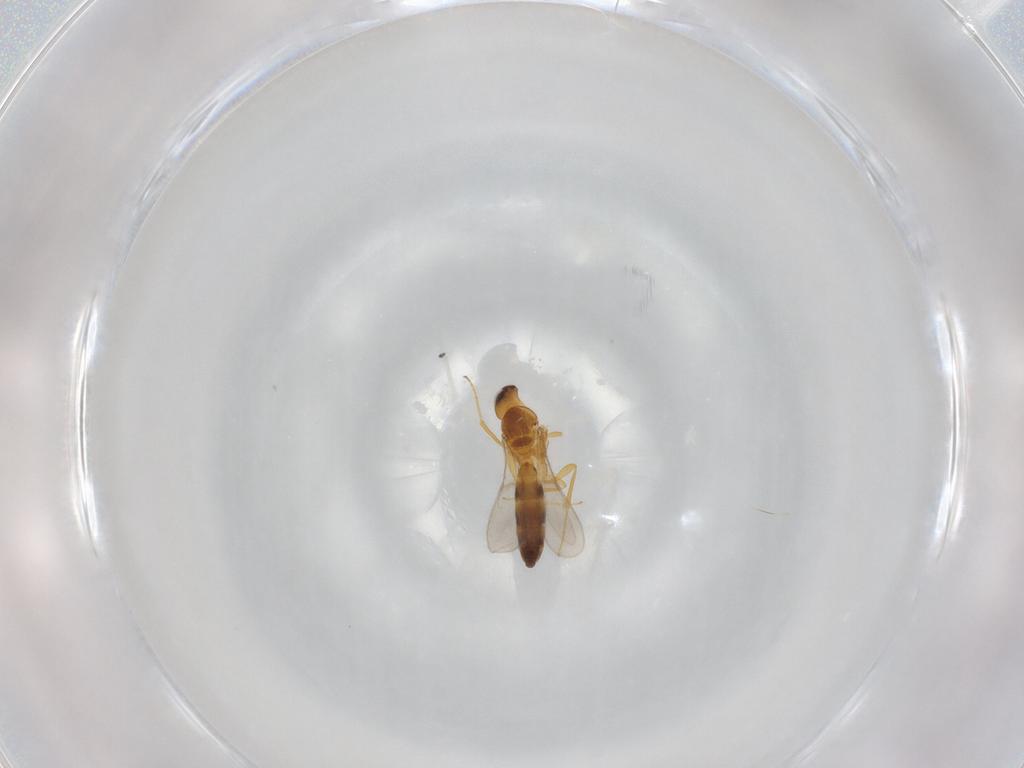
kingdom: Animalia
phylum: Arthropoda
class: Insecta
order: Hymenoptera
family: Scelionidae
